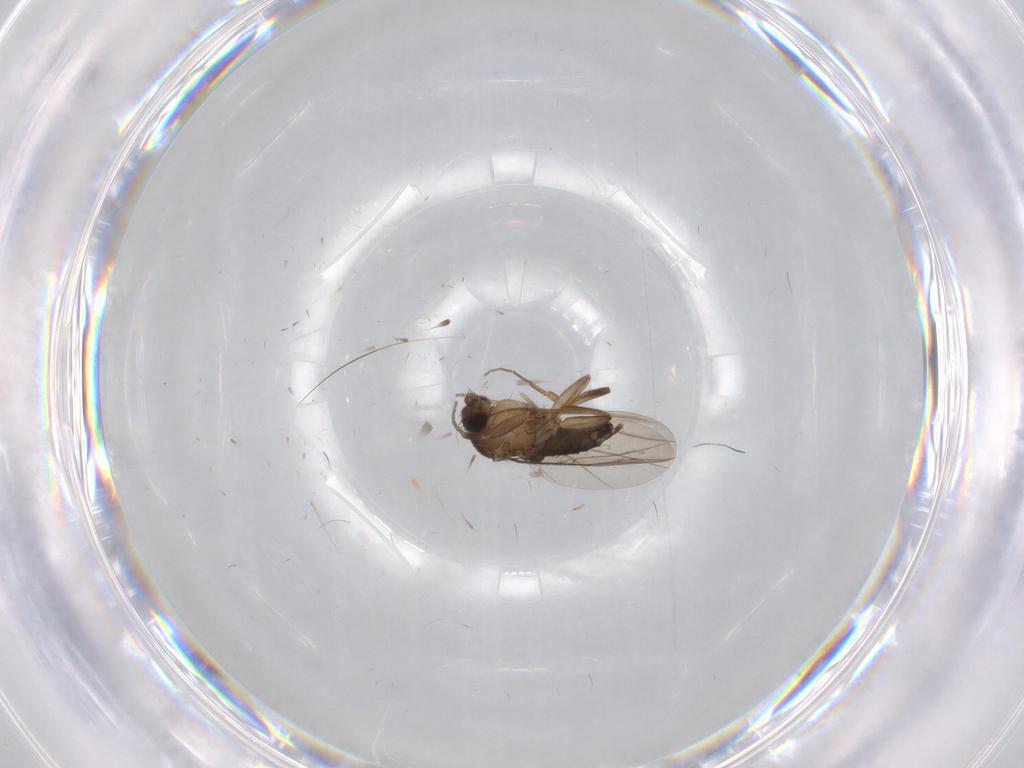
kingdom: Animalia
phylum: Arthropoda
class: Insecta
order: Diptera
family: Phoridae
